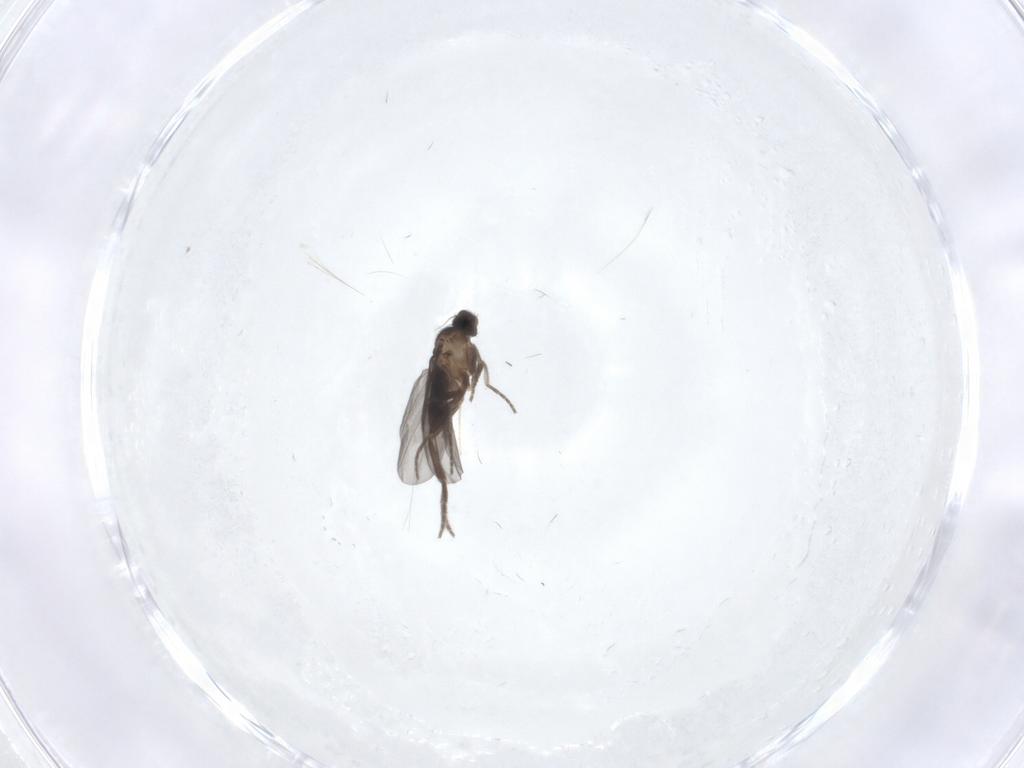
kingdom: Animalia
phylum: Arthropoda
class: Insecta
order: Diptera
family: Phoridae
